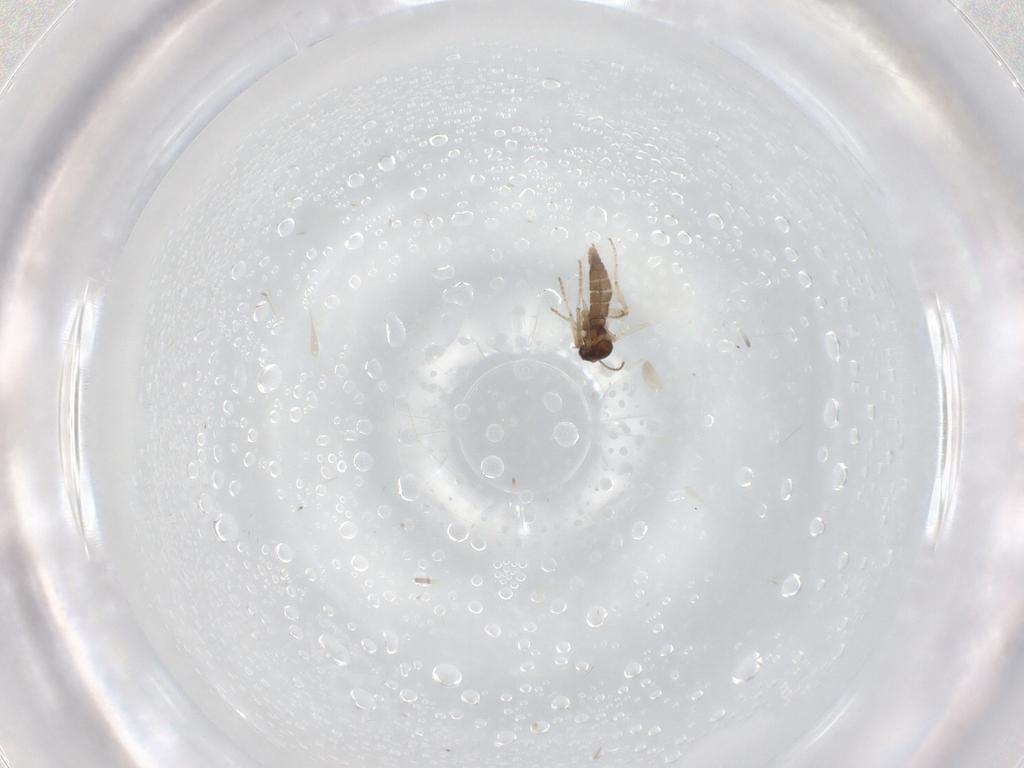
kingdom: Animalia
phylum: Arthropoda
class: Insecta
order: Diptera
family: Ceratopogonidae
